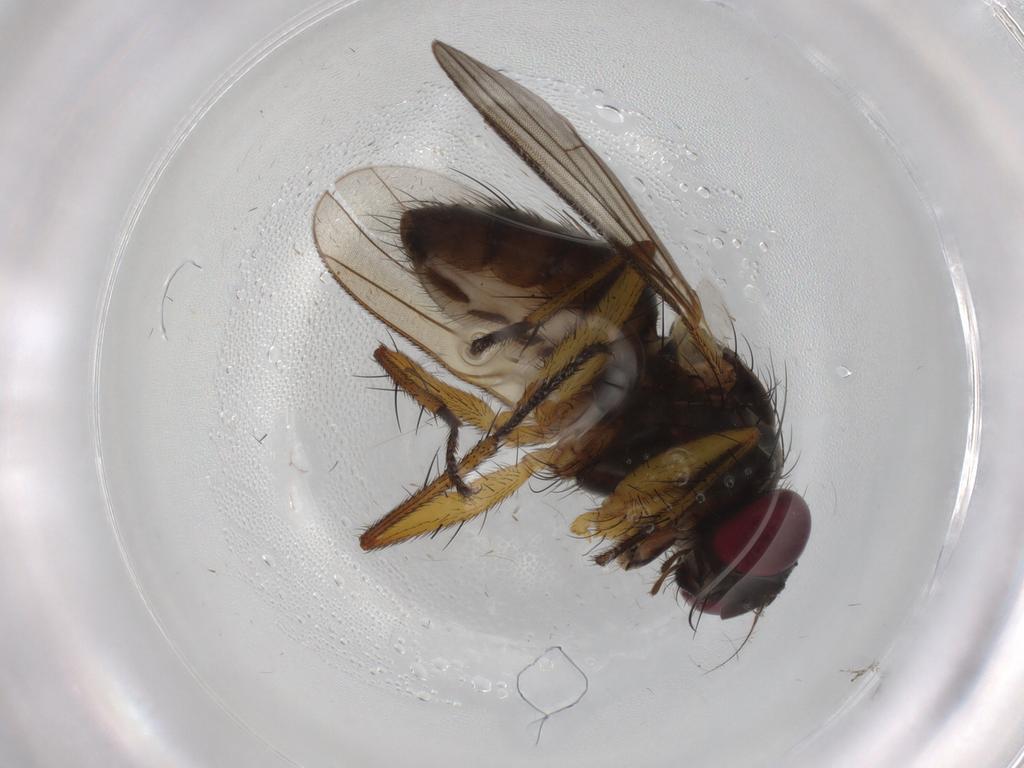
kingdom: Animalia
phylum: Arthropoda
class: Insecta
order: Diptera
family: Muscidae
